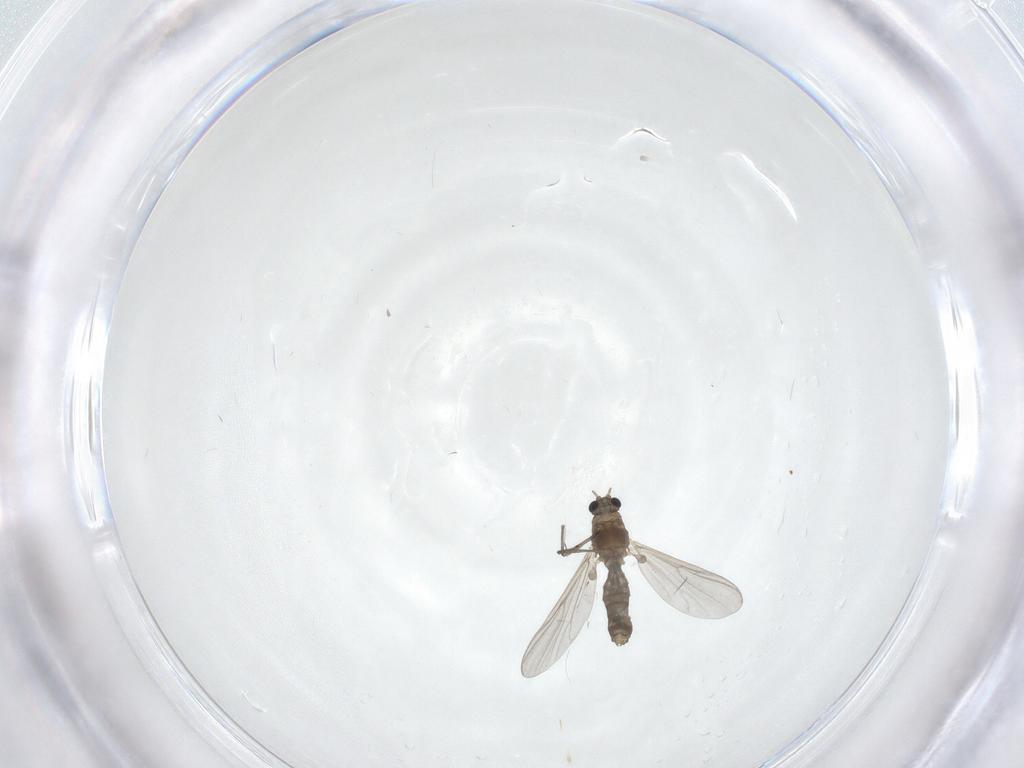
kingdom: Animalia
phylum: Arthropoda
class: Insecta
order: Diptera
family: Chironomidae
